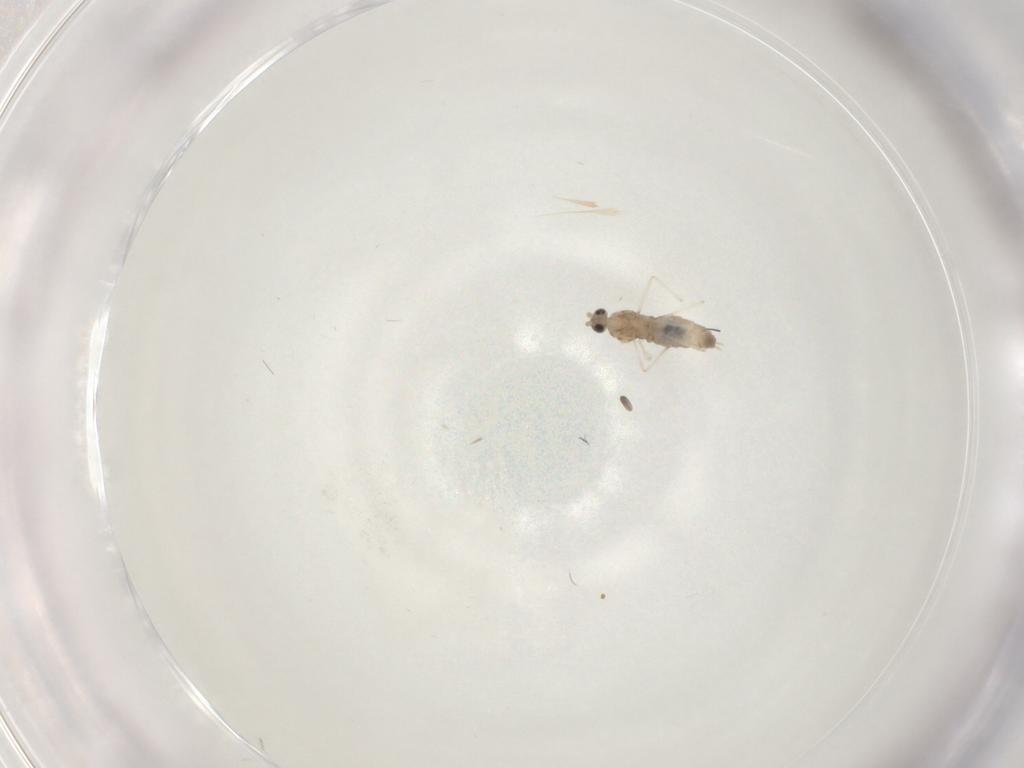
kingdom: Animalia
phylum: Arthropoda
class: Insecta
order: Diptera
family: Cecidomyiidae
